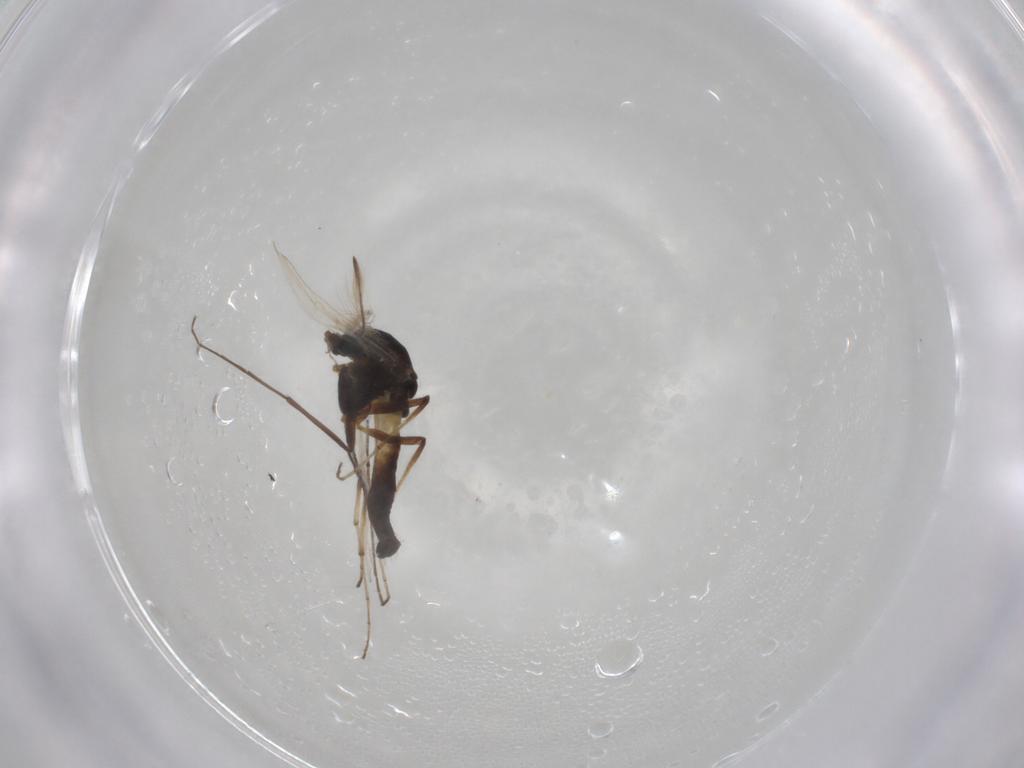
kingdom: Animalia
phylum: Arthropoda
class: Insecta
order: Diptera
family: Chironomidae
